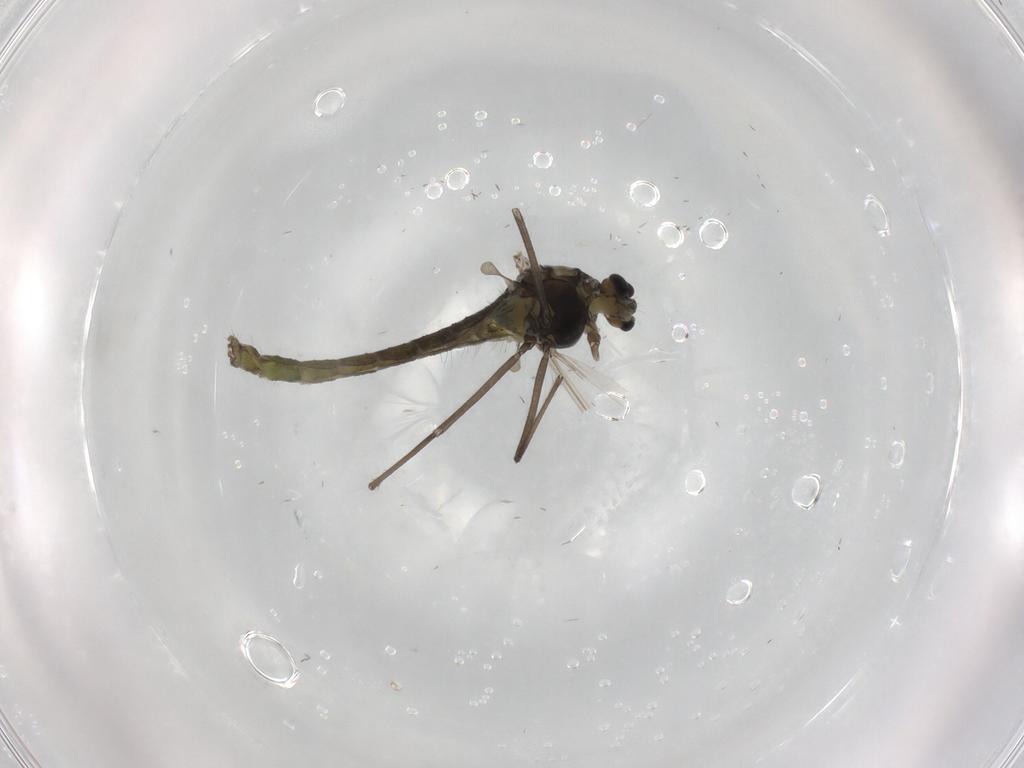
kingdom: Animalia
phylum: Arthropoda
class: Insecta
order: Diptera
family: Chironomidae
